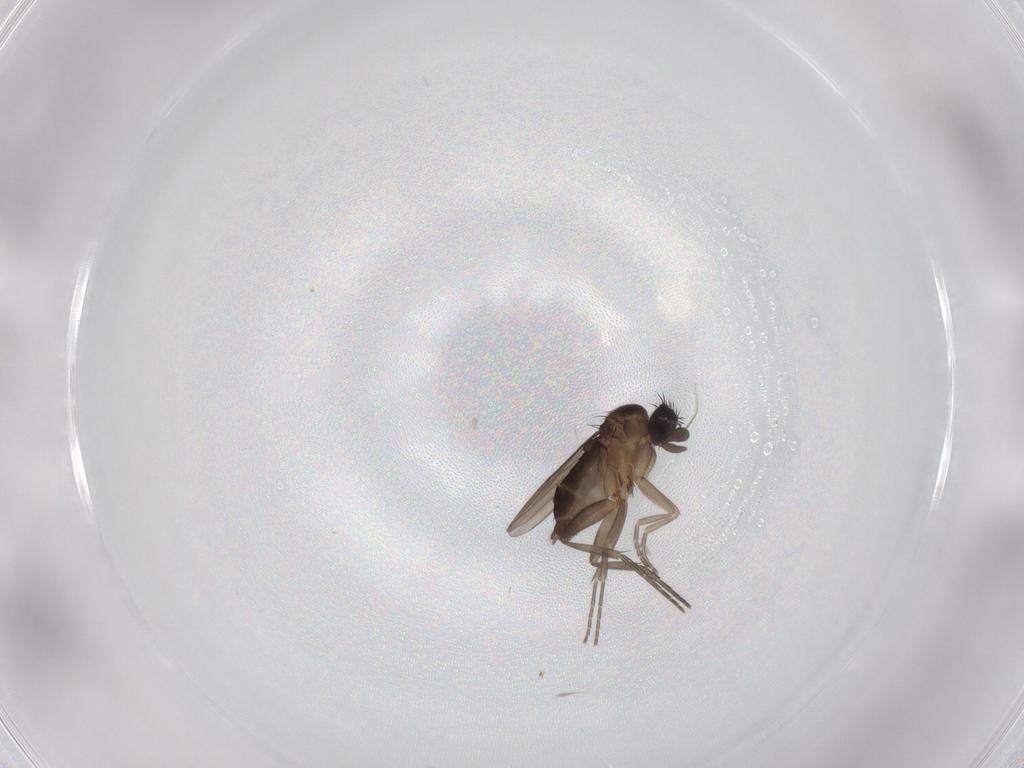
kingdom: Animalia
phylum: Arthropoda
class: Insecta
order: Diptera
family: Phoridae
